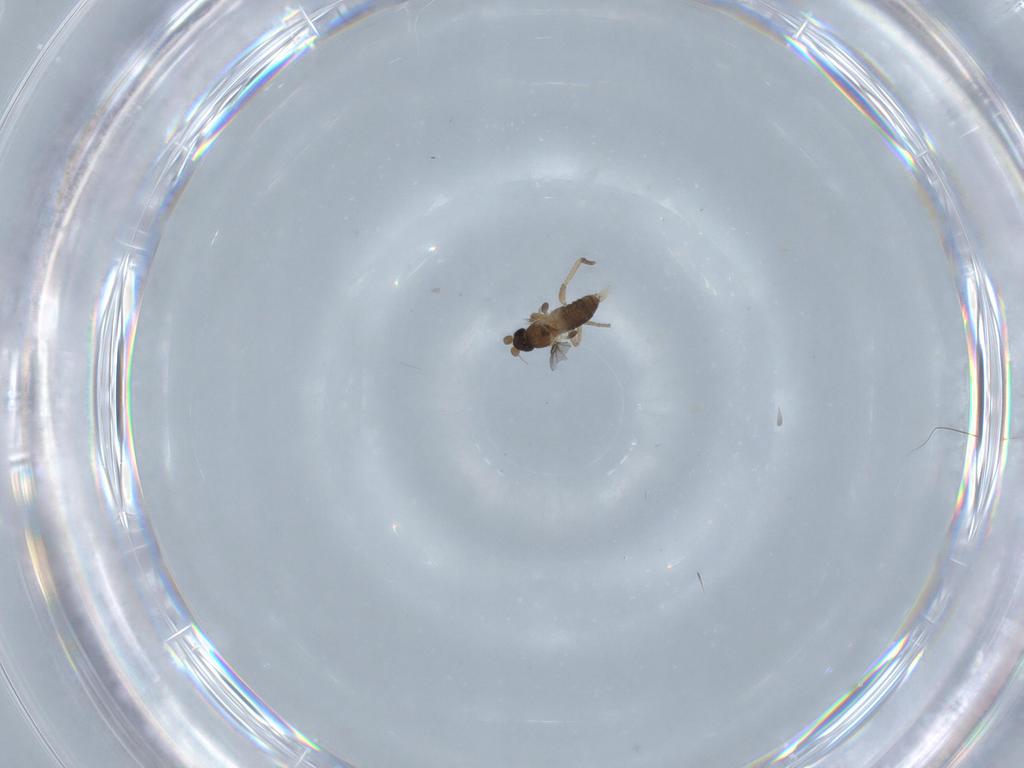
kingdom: Animalia
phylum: Arthropoda
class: Insecta
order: Diptera
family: Phoridae
